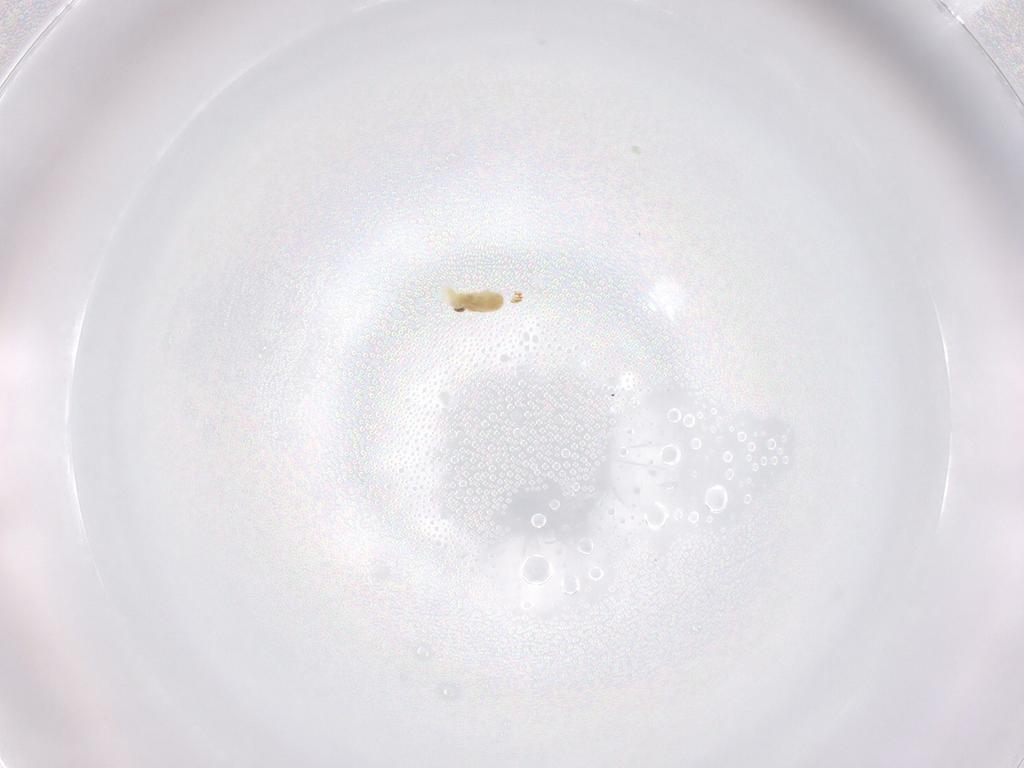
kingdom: Animalia
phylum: Arthropoda
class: Arachnida
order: Trombidiformes
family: Eupodidae
